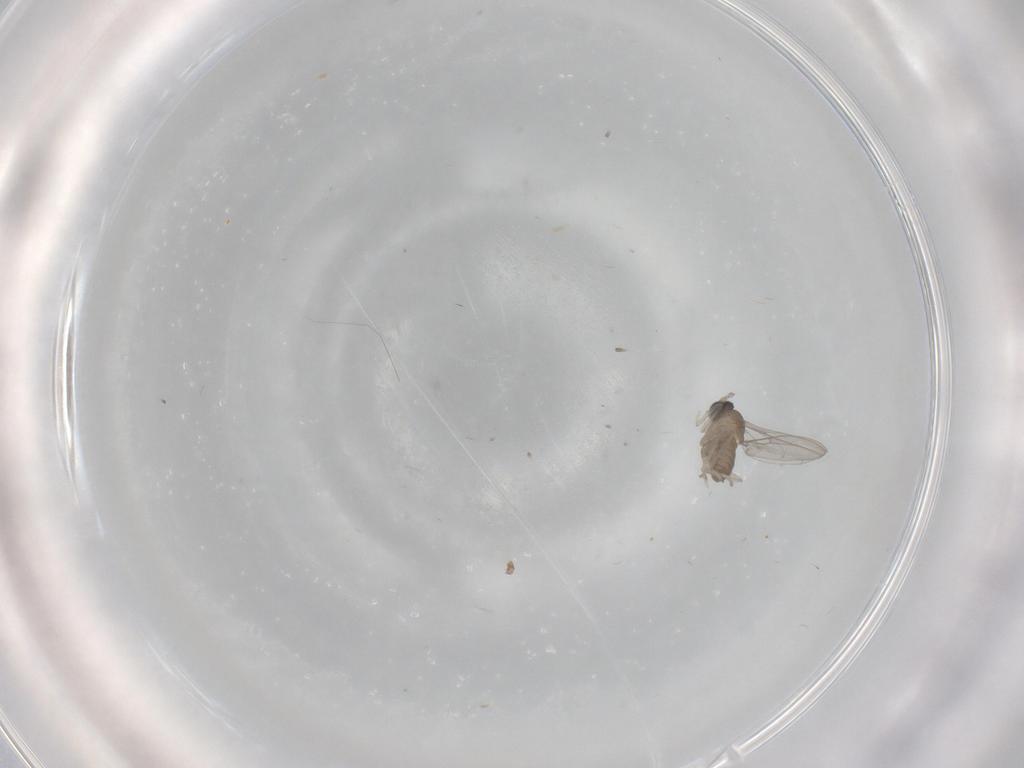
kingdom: Animalia
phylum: Arthropoda
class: Insecta
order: Diptera
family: Cecidomyiidae
